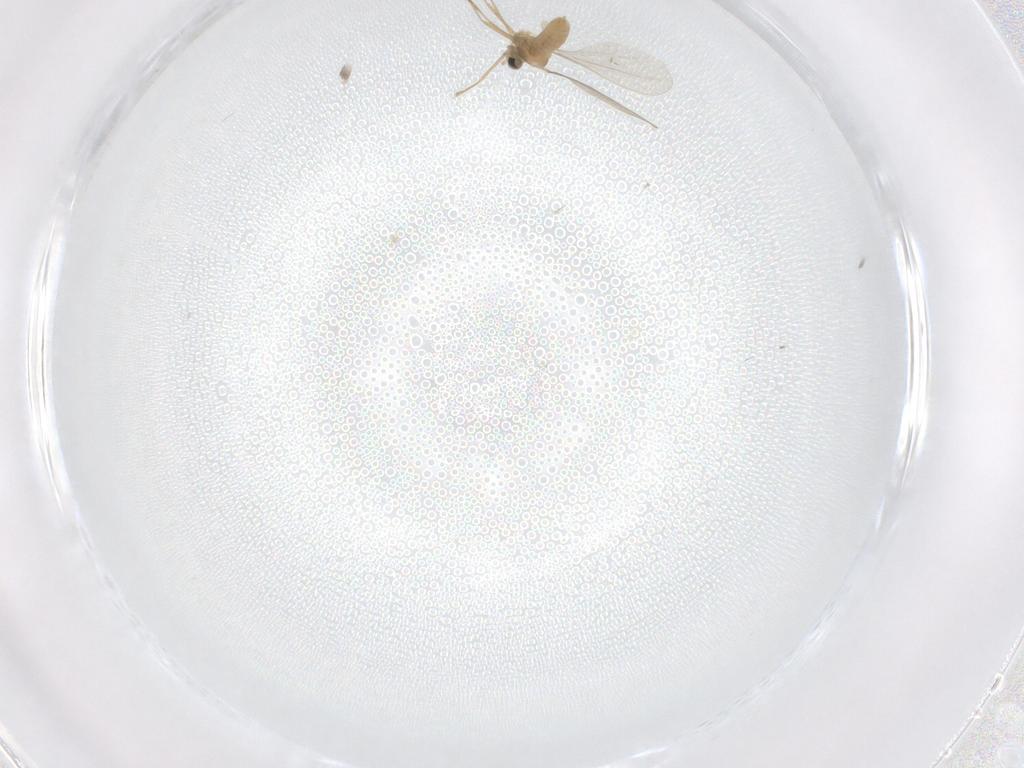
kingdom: Animalia
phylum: Arthropoda
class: Insecta
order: Diptera
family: Cecidomyiidae
